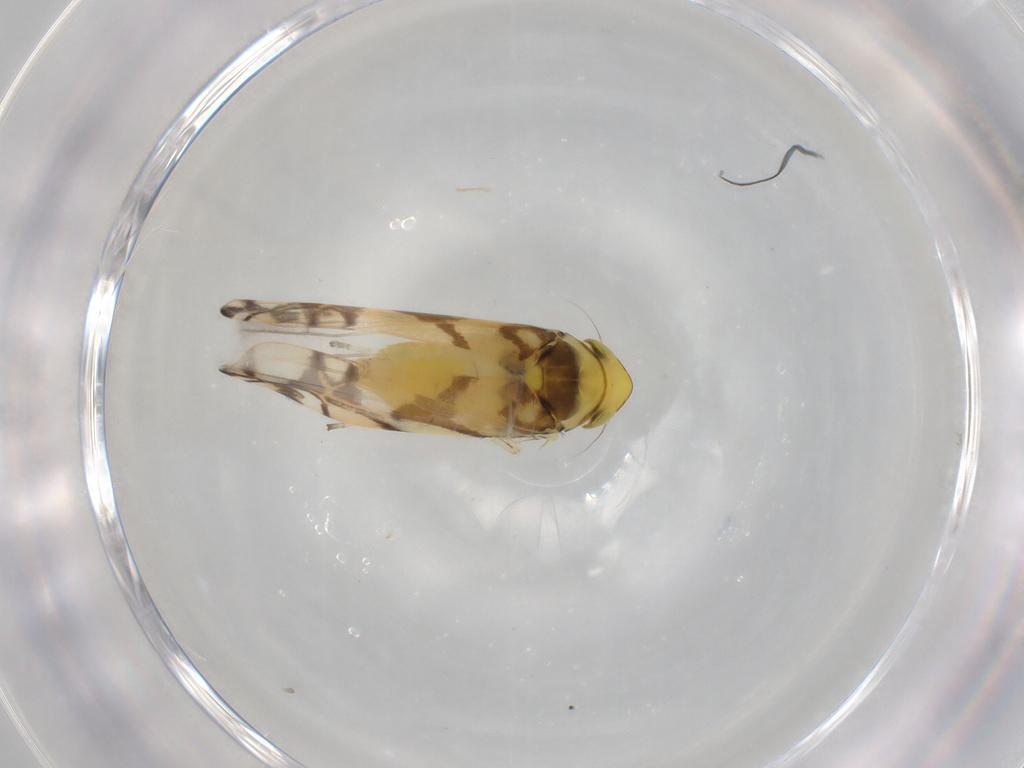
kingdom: Animalia
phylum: Arthropoda
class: Insecta
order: Hemiptera
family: Cicadellidae
